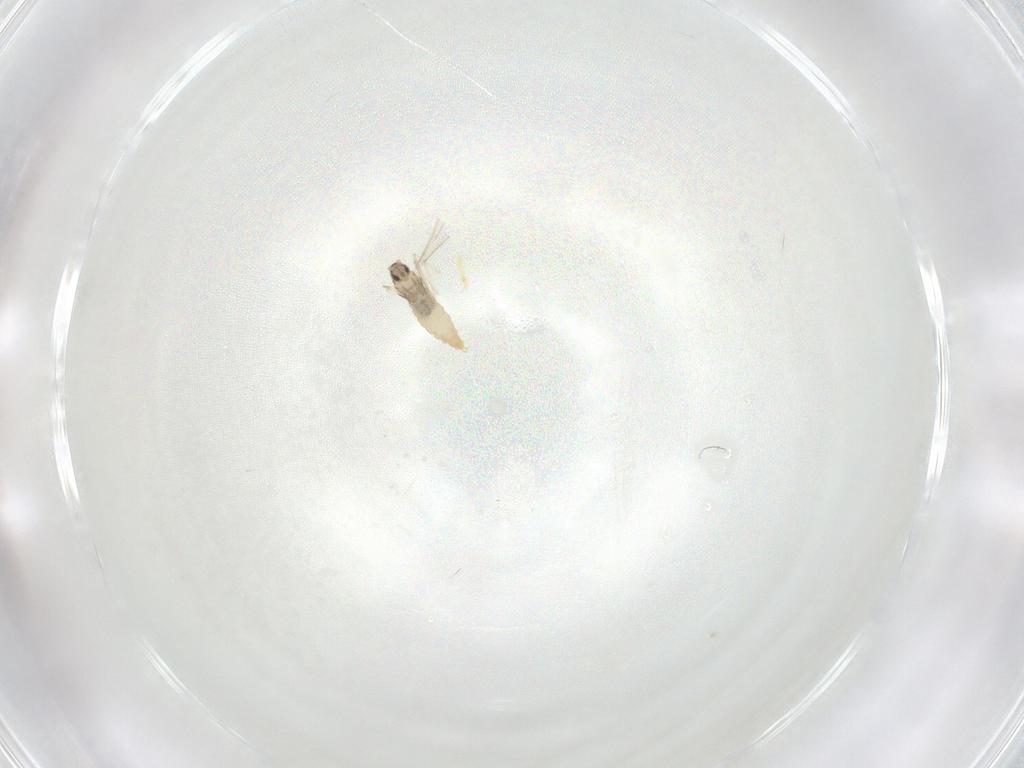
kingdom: Animalia
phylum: Arthropoda
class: Insecta
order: Diptera
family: Cecidomyiidae
